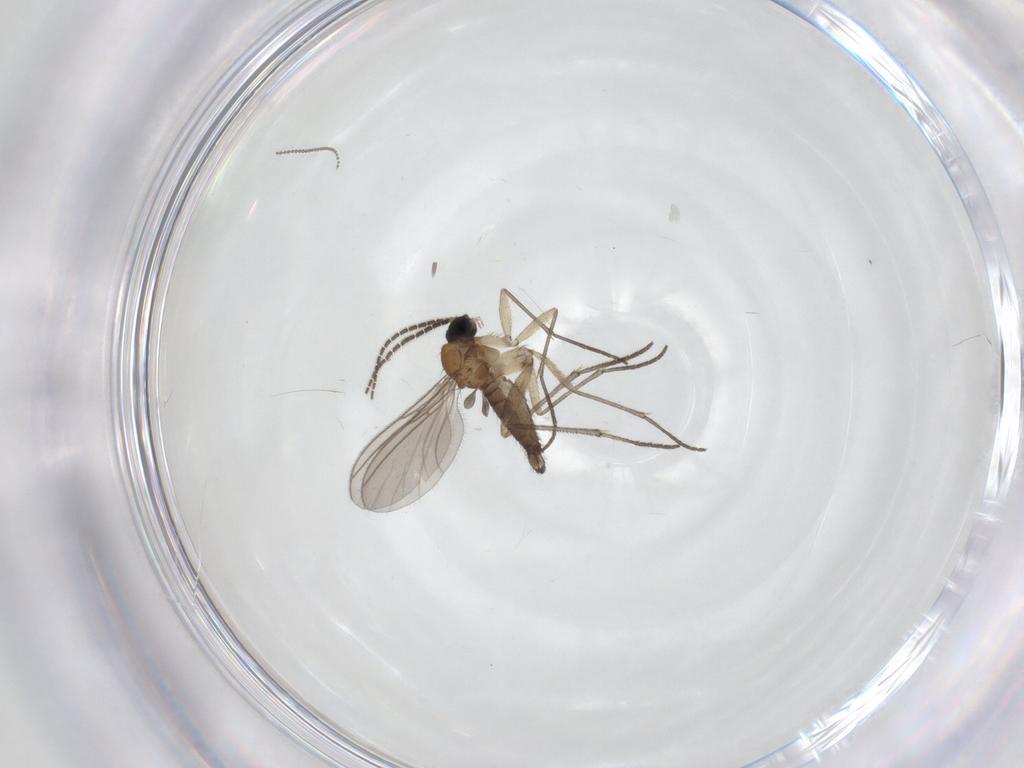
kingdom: Animalia
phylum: Arthropoda
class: Insecta
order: Diptera
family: Sciaridae
